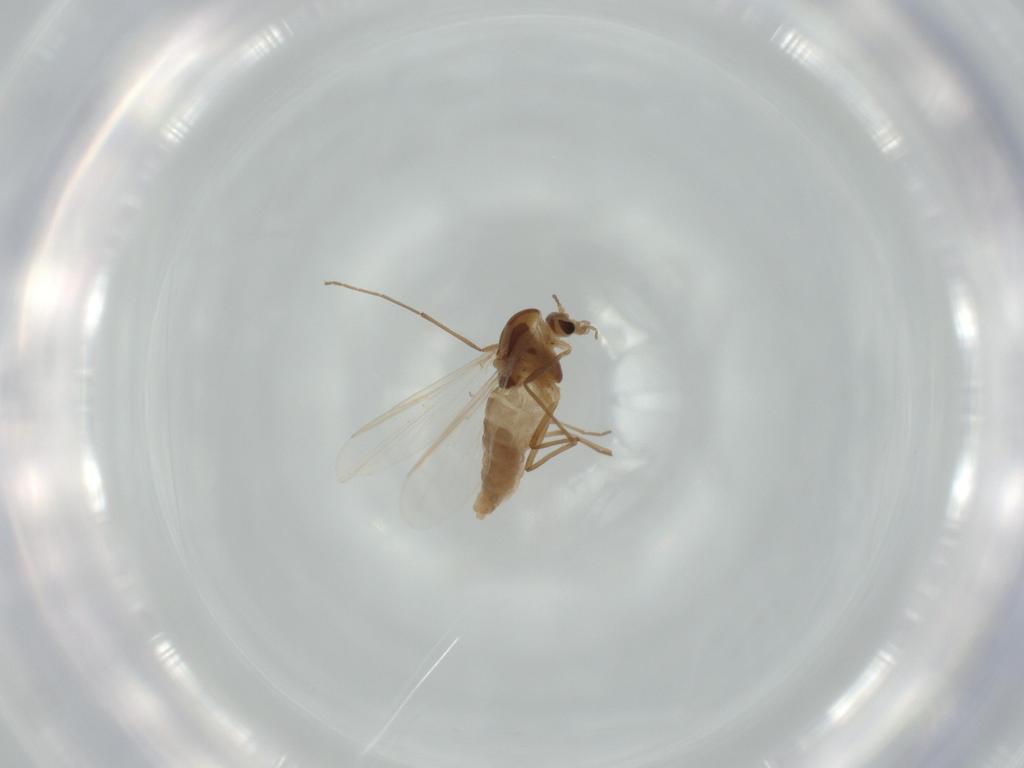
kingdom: Animalia
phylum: Arthropoda
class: Insecta
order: Diptera
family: Chironomidae
